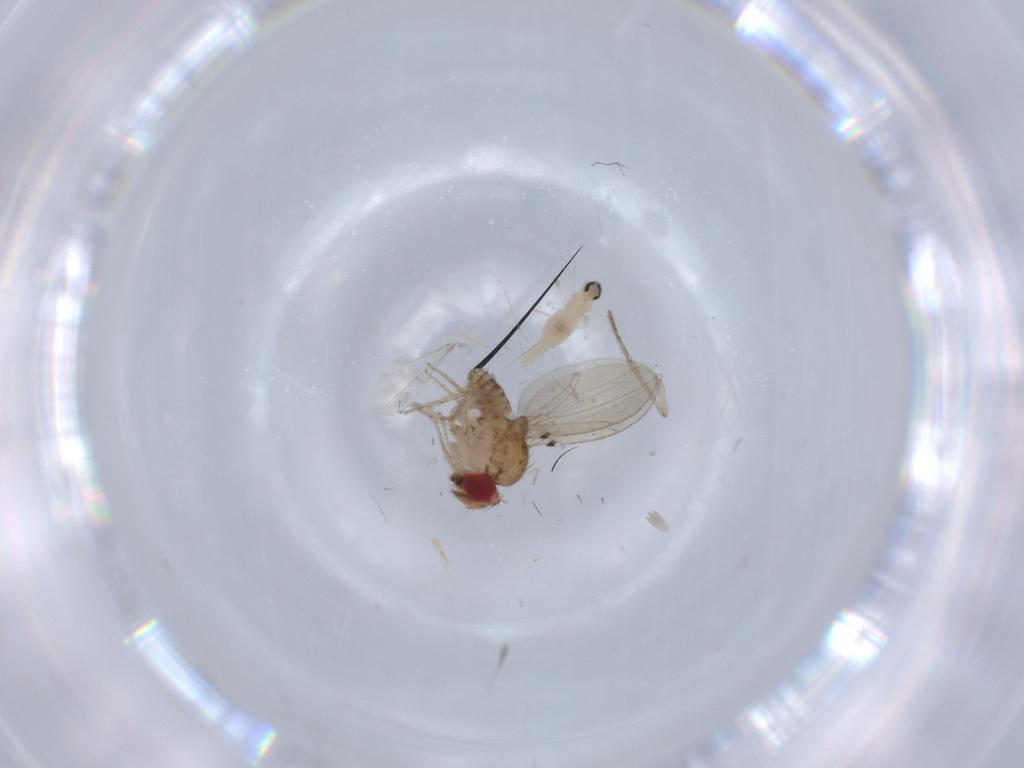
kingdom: Animalia
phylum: Arthropoda
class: Insecta
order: Diptera
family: Drosophilidae
